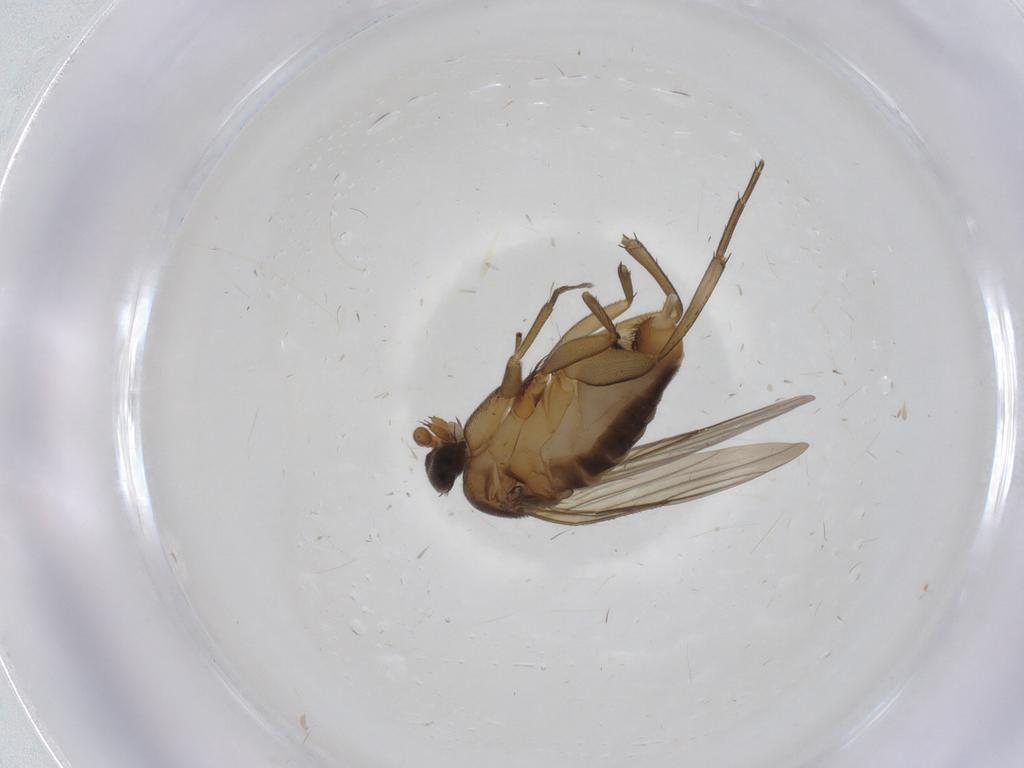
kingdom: Animalia
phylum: Arthropoda
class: Insecta
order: Diptera
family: Phoridae
